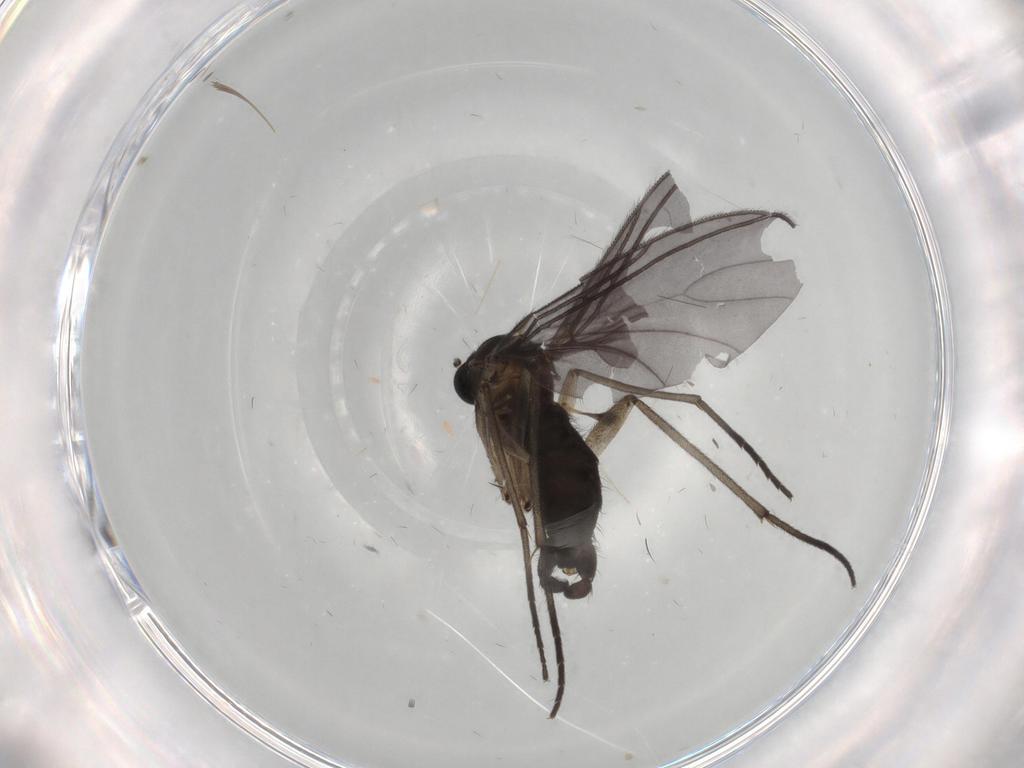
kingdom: Animalia
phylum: Arthropoda
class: Insecta
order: Diptera
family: Sciaridae
